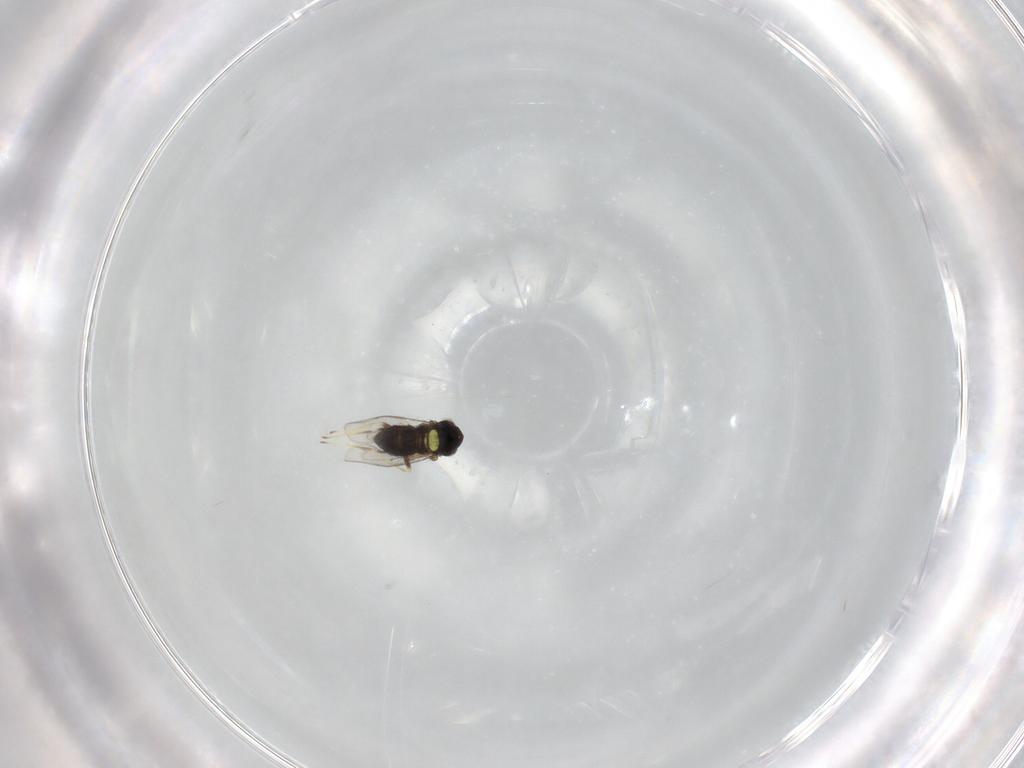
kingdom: Animalia
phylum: Arthropoda
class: Insecta
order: Hymenoptera
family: Aphelinidae
